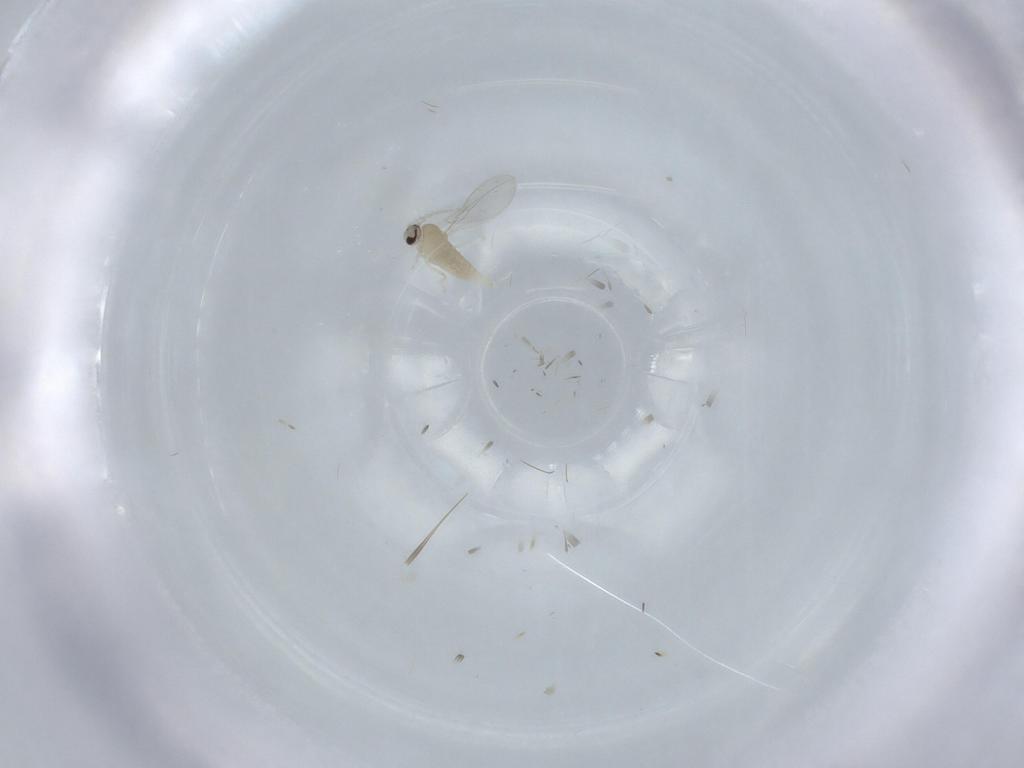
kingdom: Animalia
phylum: Arthropoda
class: Insecta
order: Diptera
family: Cecidomyiidae
